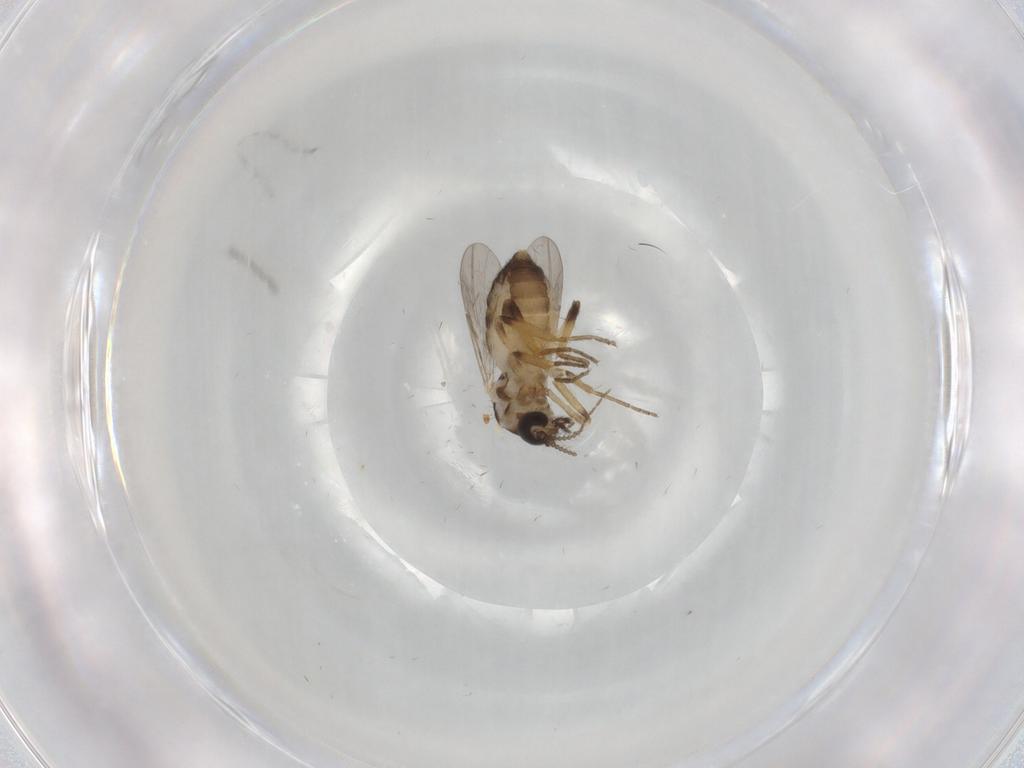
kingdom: Animalia
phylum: Arthropoda
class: Insecta
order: Diptera
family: Ceratopogonidae
